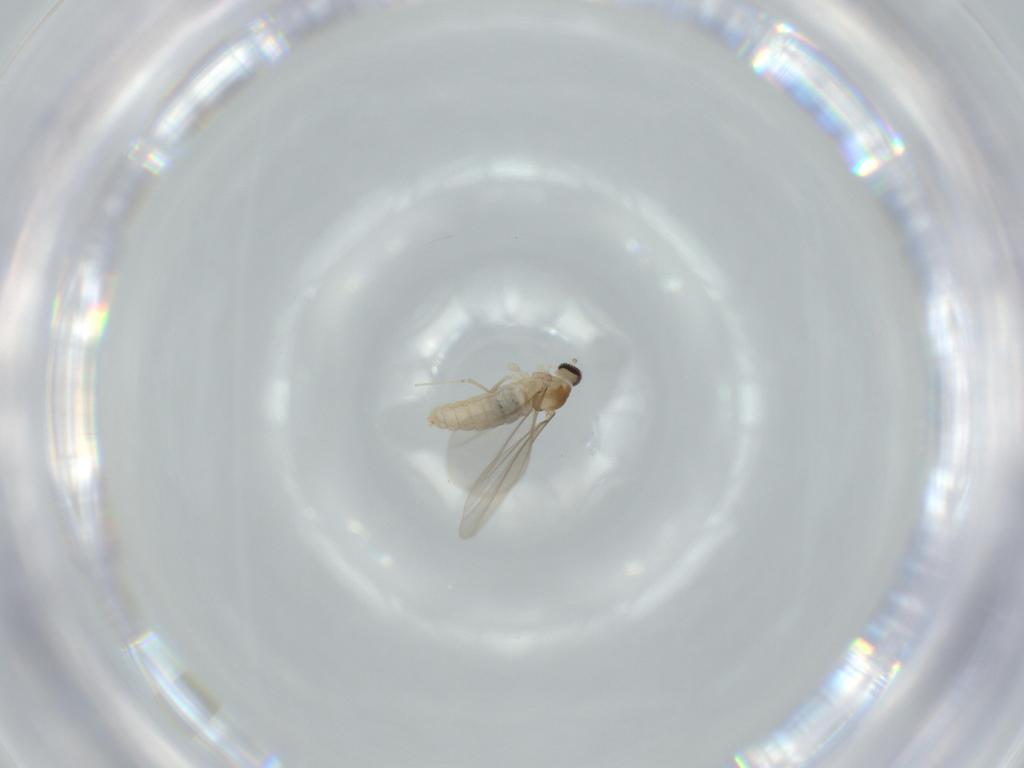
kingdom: Animalia
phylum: Arthropoda
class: Insecta
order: Diptera
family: Cecidomyiidae
